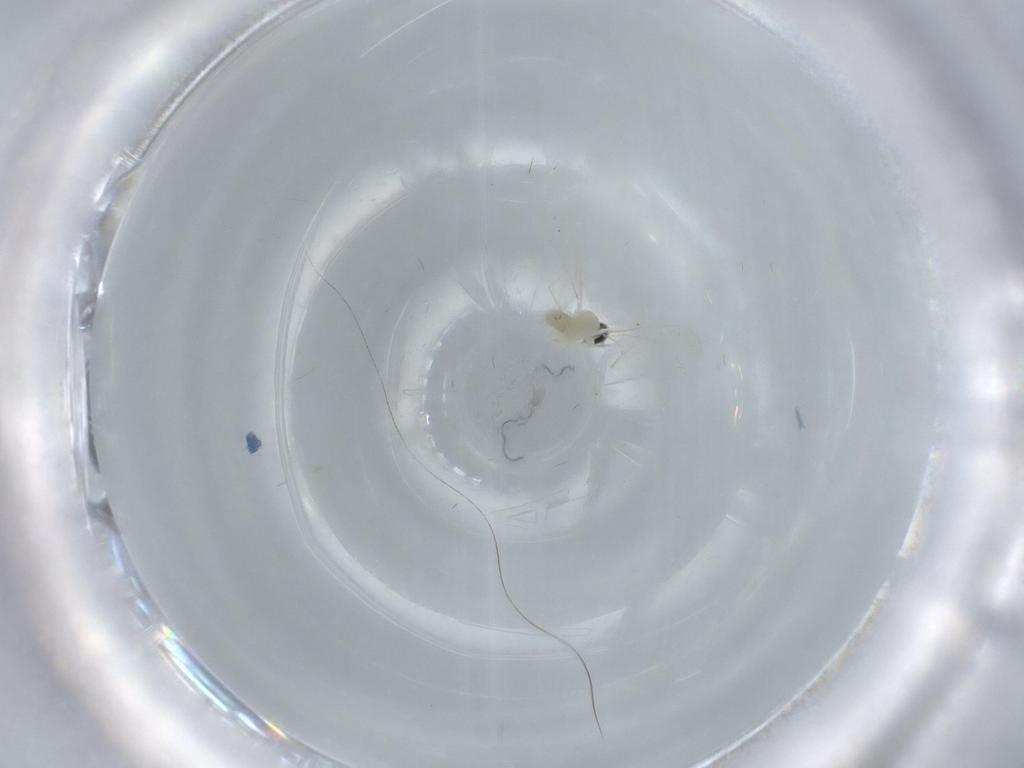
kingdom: Animalia
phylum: Arthropoda
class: Insecta
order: Diptera
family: Cecidomyiidae
